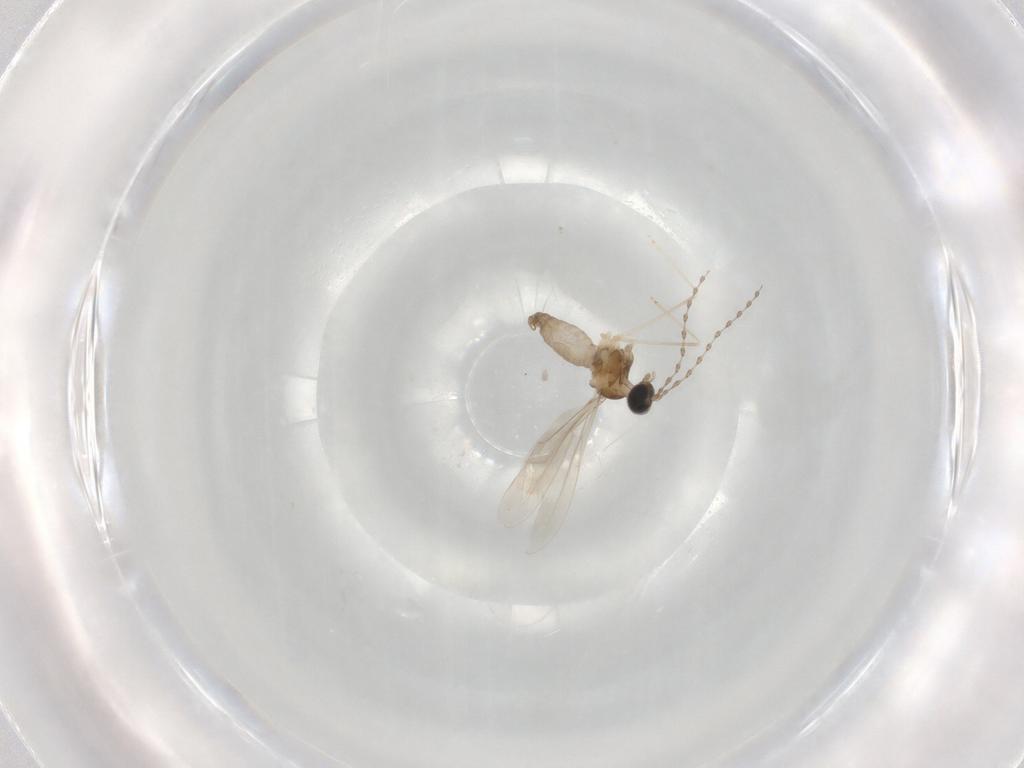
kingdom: Animalia
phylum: Arthropoda
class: Insecta
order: Diptera
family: Cecidomyiidae
